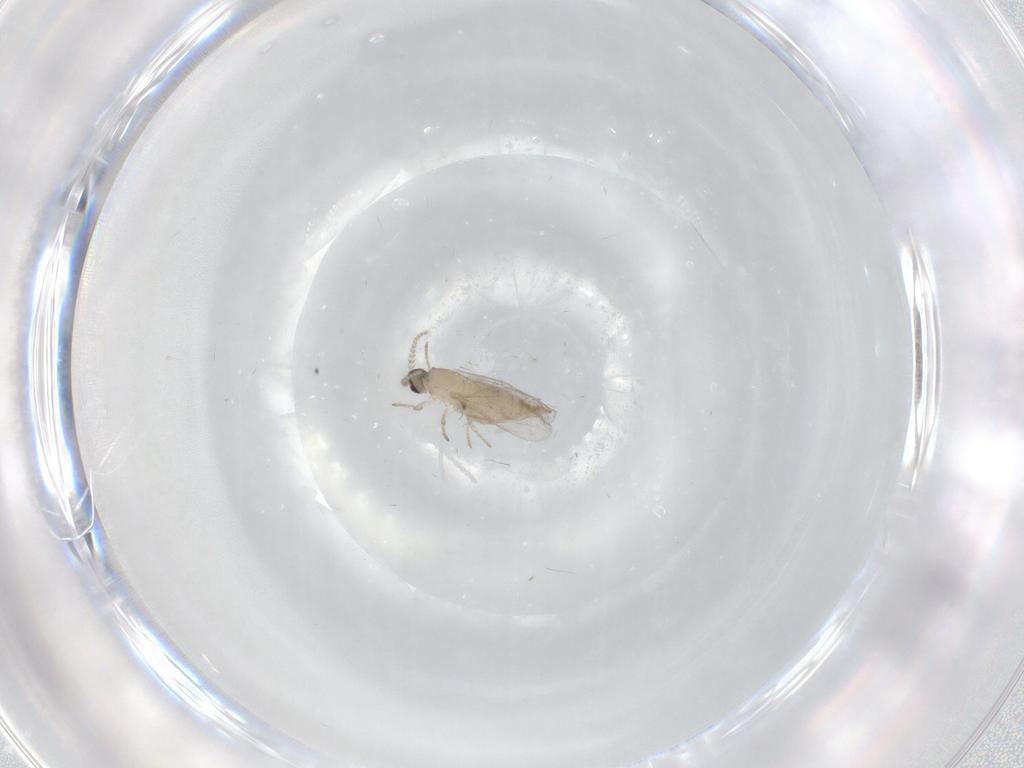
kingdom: Animalia
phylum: Arthropoda
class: Insecta
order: Diptera
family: Cecidomyiidae
